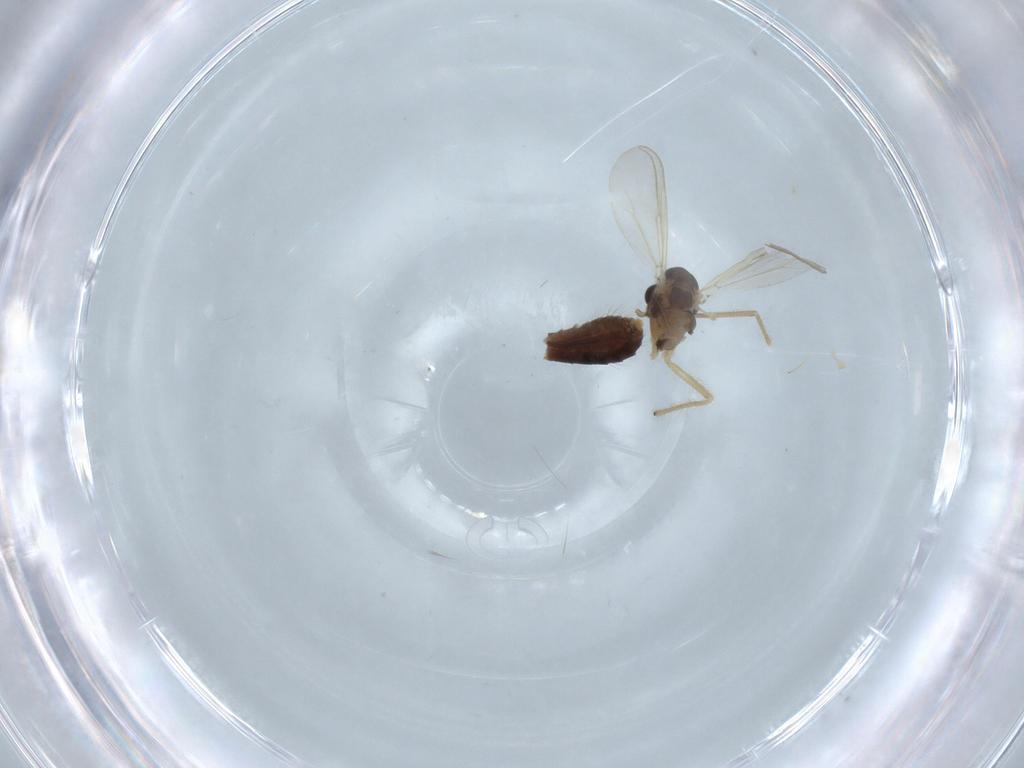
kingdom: Animalia
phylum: Arthropoda
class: Insecta
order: Diptera
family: Chironomidae
